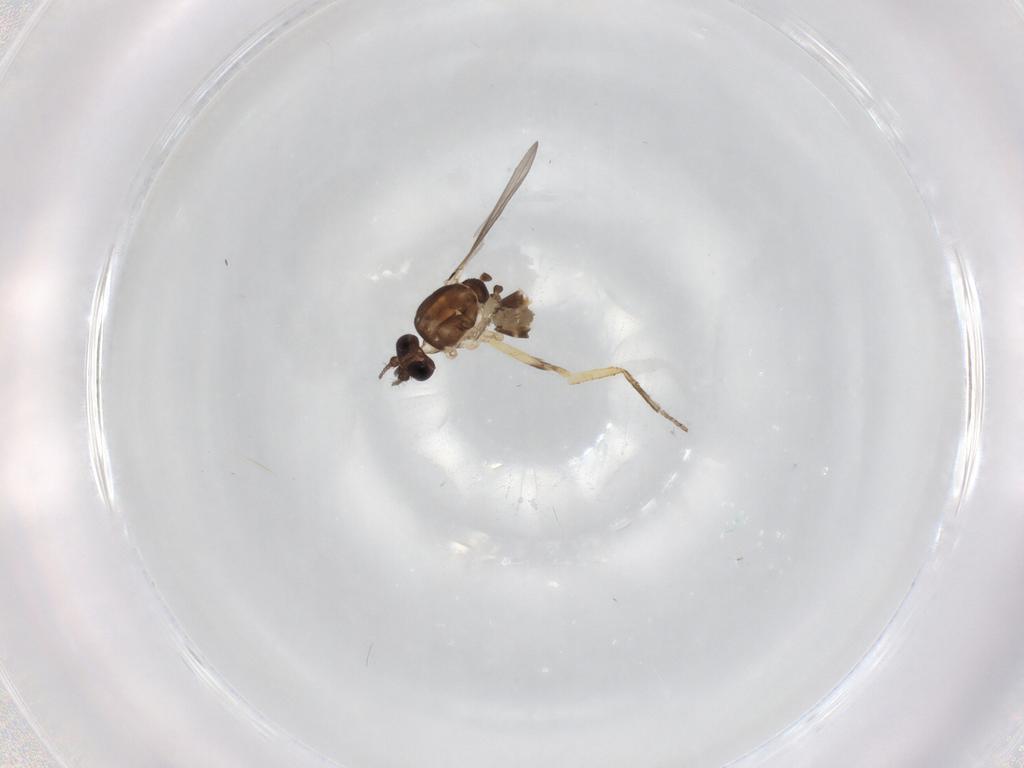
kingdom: Animalia
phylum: Arthropoda
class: Insecta
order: Diptera
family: Ceratopogonidae
